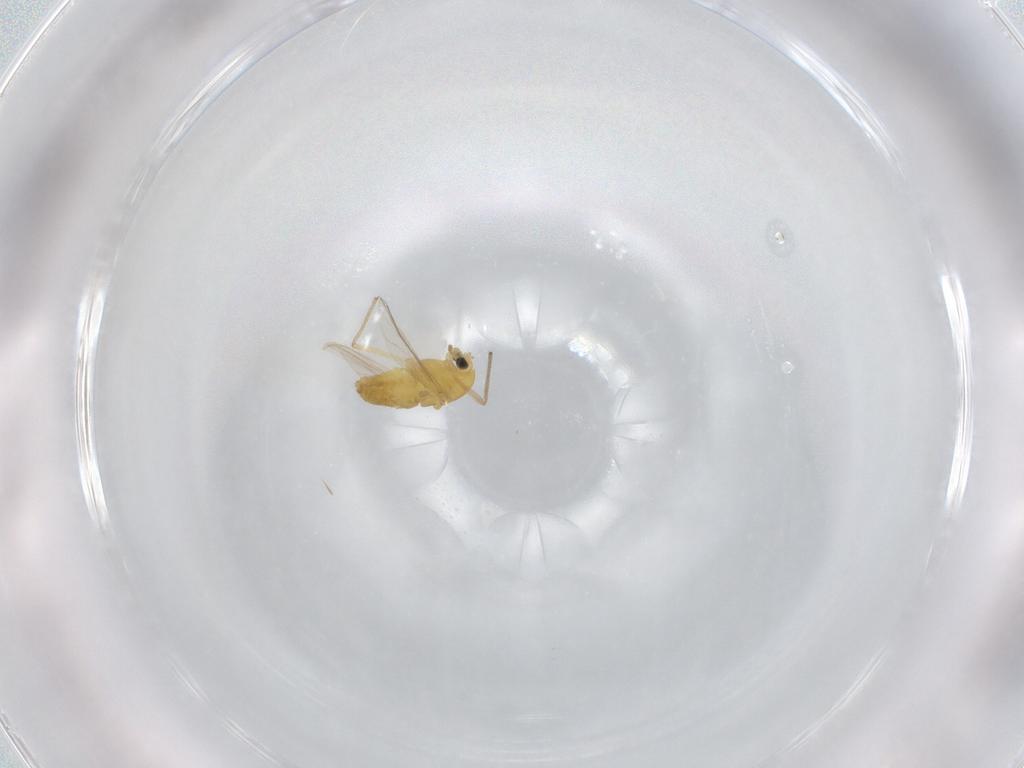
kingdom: Animalia
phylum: Arthropoda
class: Insecta
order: Diptera
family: Chironomidae
